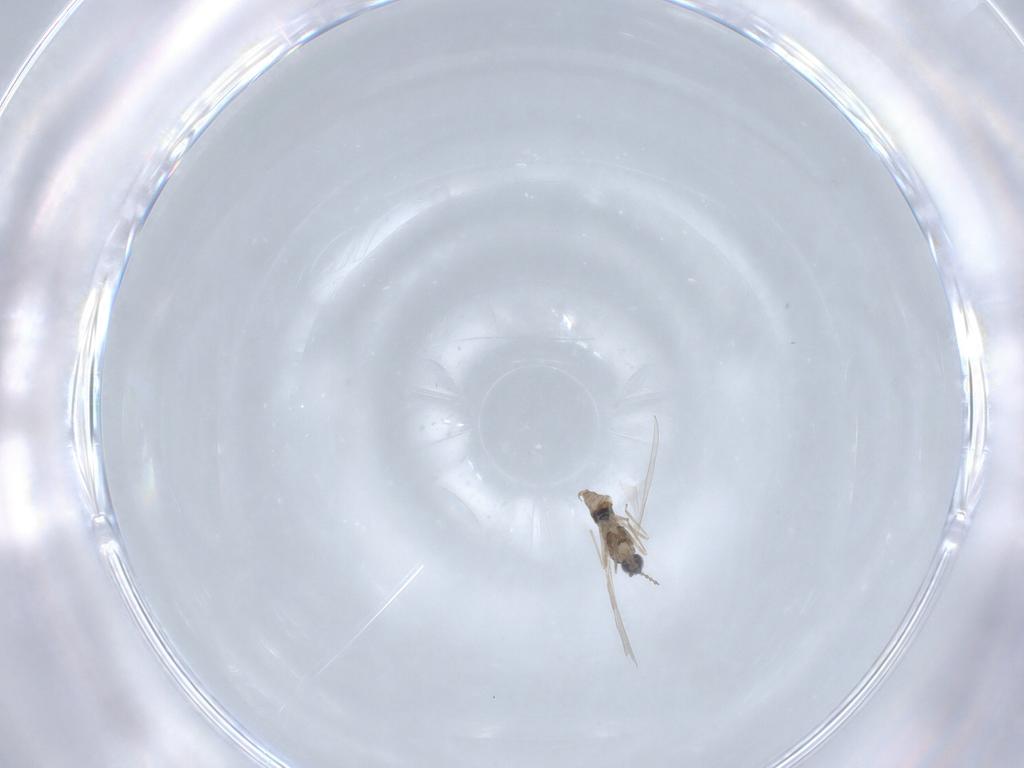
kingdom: Animalia
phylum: Arthropoda
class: Insecta
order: Diptera
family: Cecidomyiidae
